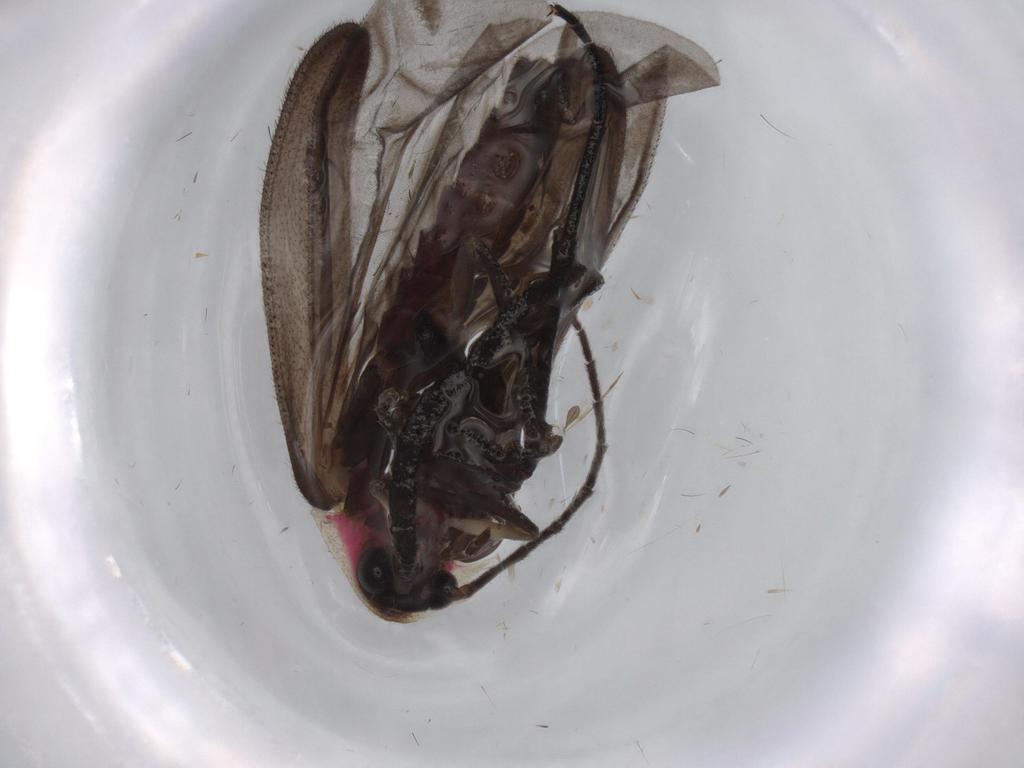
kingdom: Animalia
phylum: Arthropoda
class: Insecta
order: Coleoptera
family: Lampyridae
